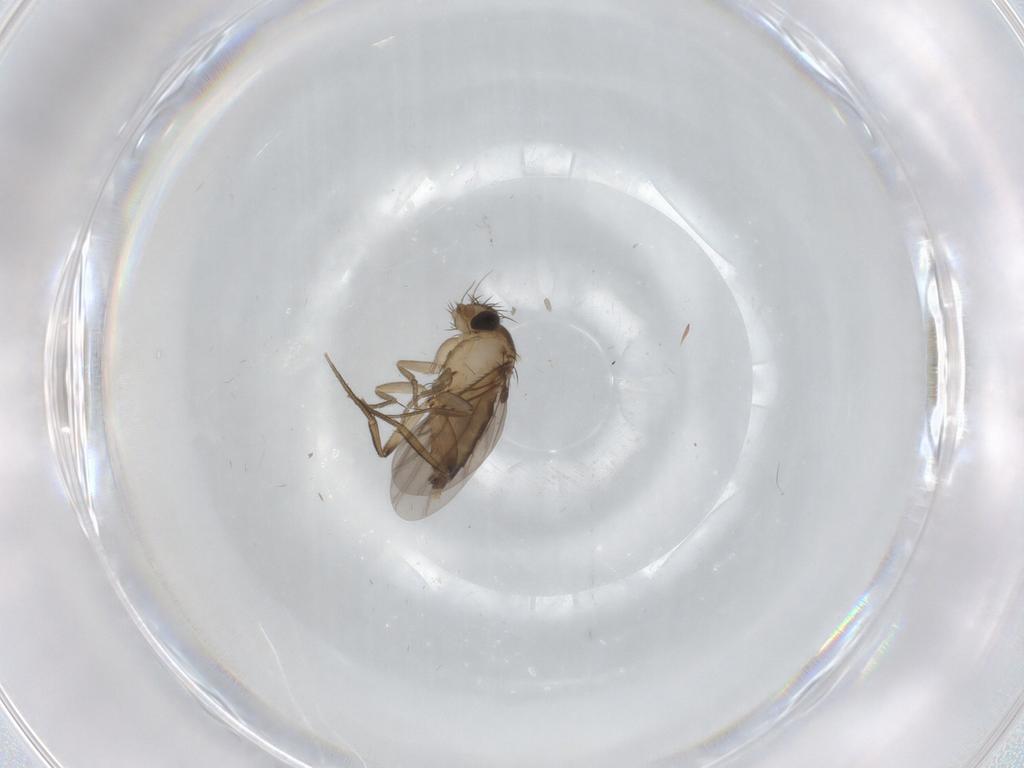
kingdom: Animalia
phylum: Arthropoda
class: Insecta
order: Diptera
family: Phoridae
